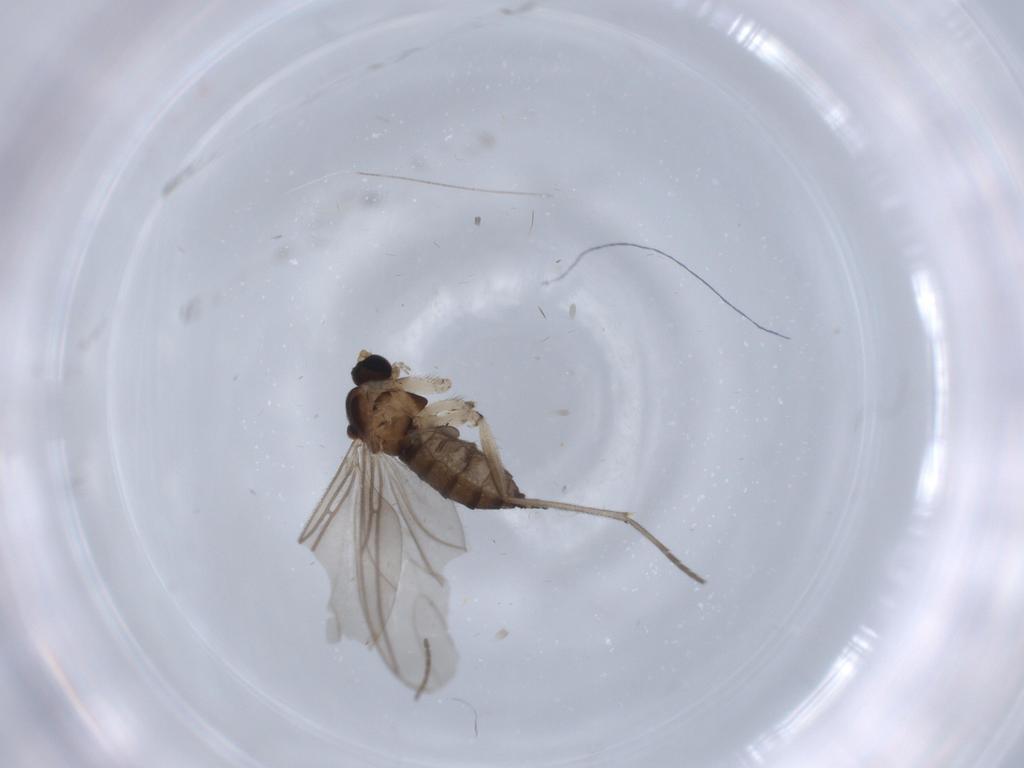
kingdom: Animalia
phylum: Arthropoda
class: Insecta
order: Diptera
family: Sciaridae
